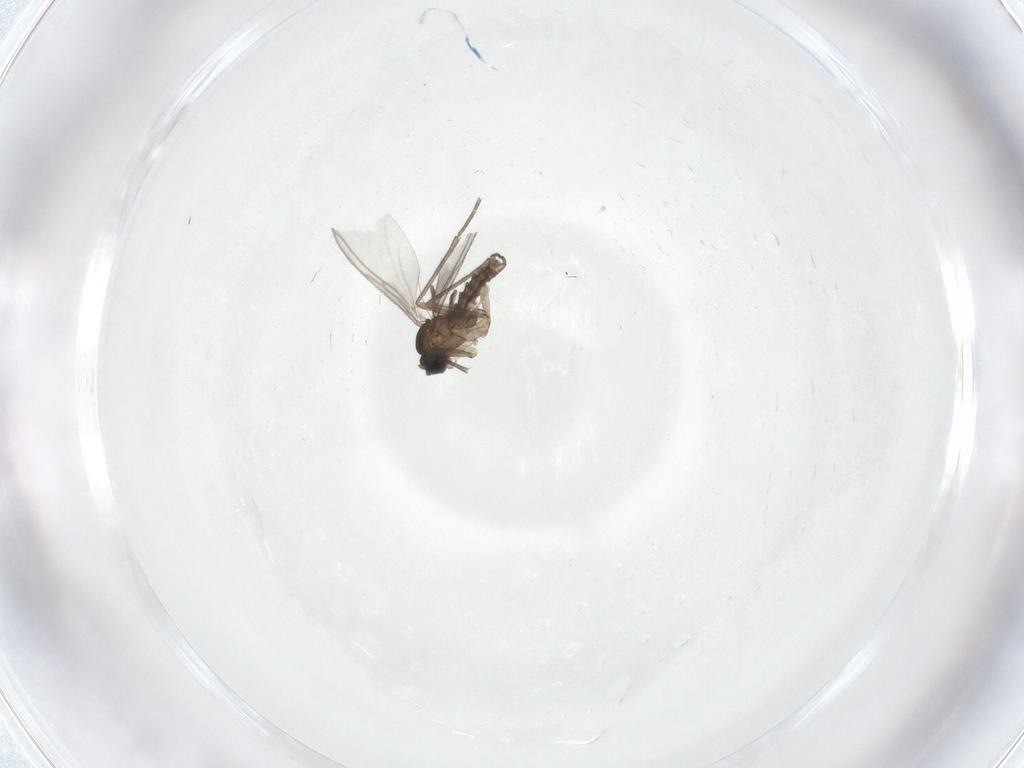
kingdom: Animalia
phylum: Arthropoda
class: Insecta
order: Diptera
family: Sciaridae
